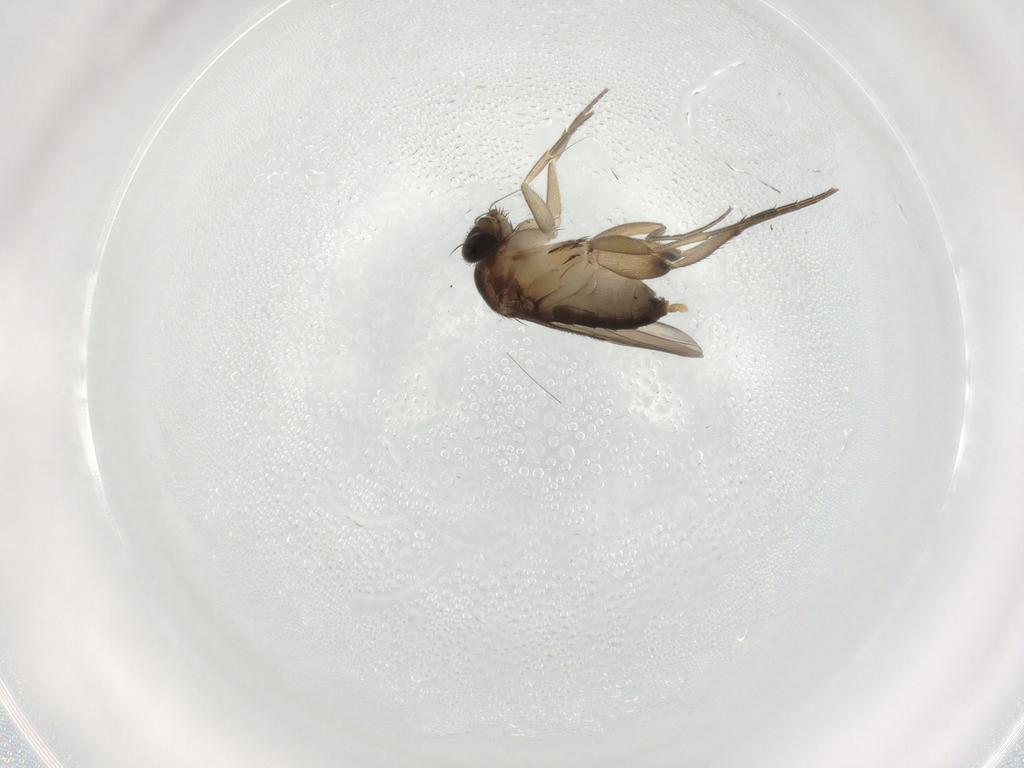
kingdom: Animalia
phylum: Arthropoda
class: Insecta
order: Diptera
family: Phoridae
